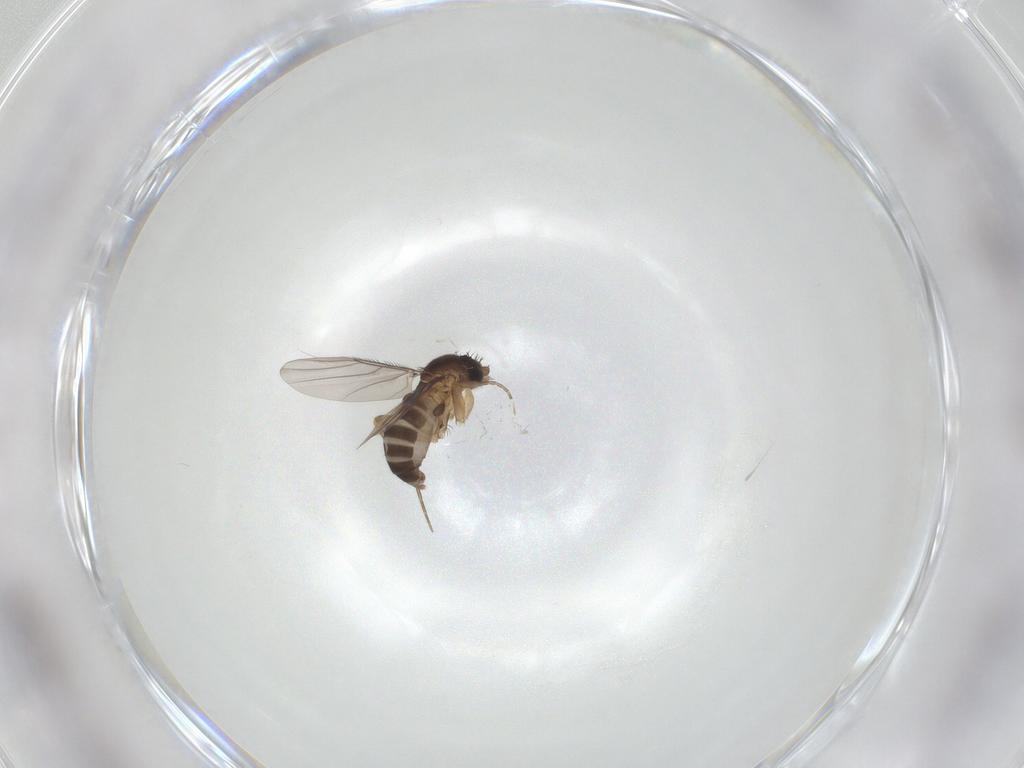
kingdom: Animalia
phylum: Arthropoda
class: Insecta
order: Diptera
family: Phoridae
